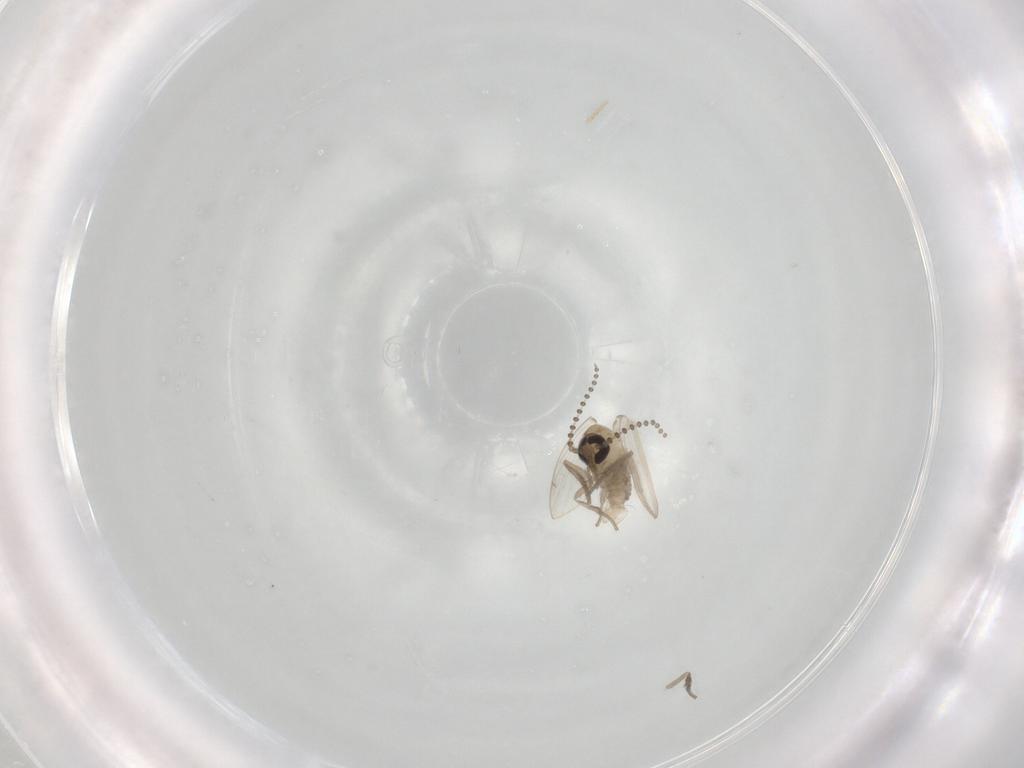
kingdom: Animalia
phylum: Arthropoda
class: Insecta
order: Diptera
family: Psychodidae
